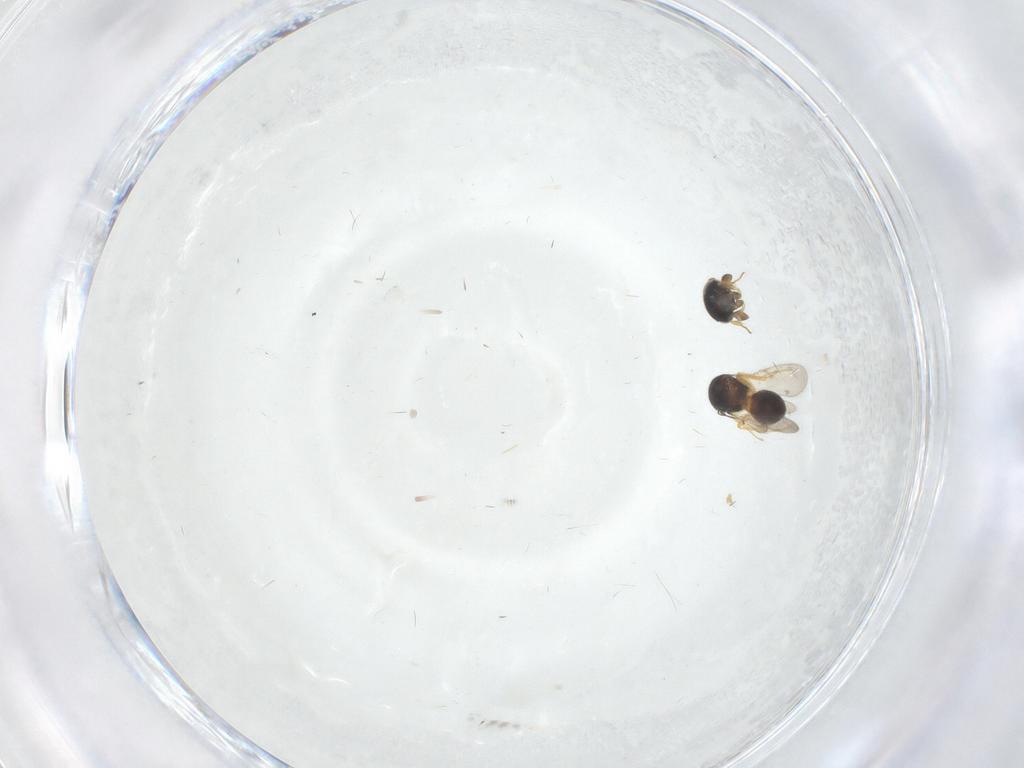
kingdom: Animalia
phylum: Arthropoda
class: Insecta
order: Hymenoptera
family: Scelionidae
